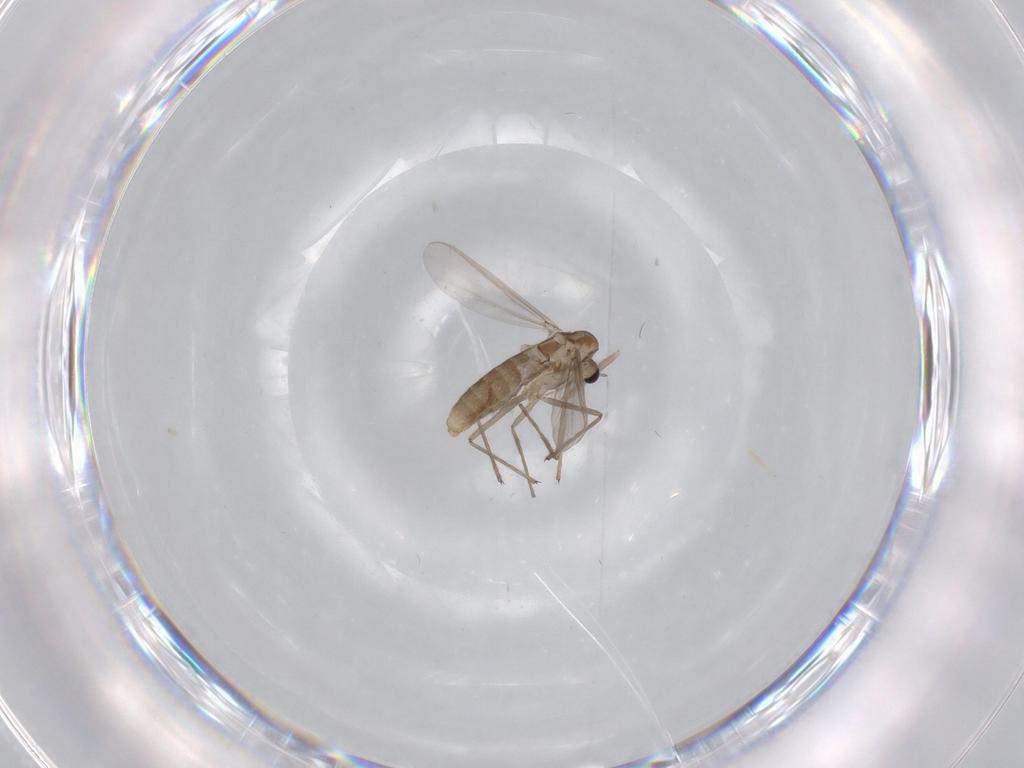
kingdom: Animalia
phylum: Arthropoda
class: Insecta
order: Diptera
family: Chironomidae
